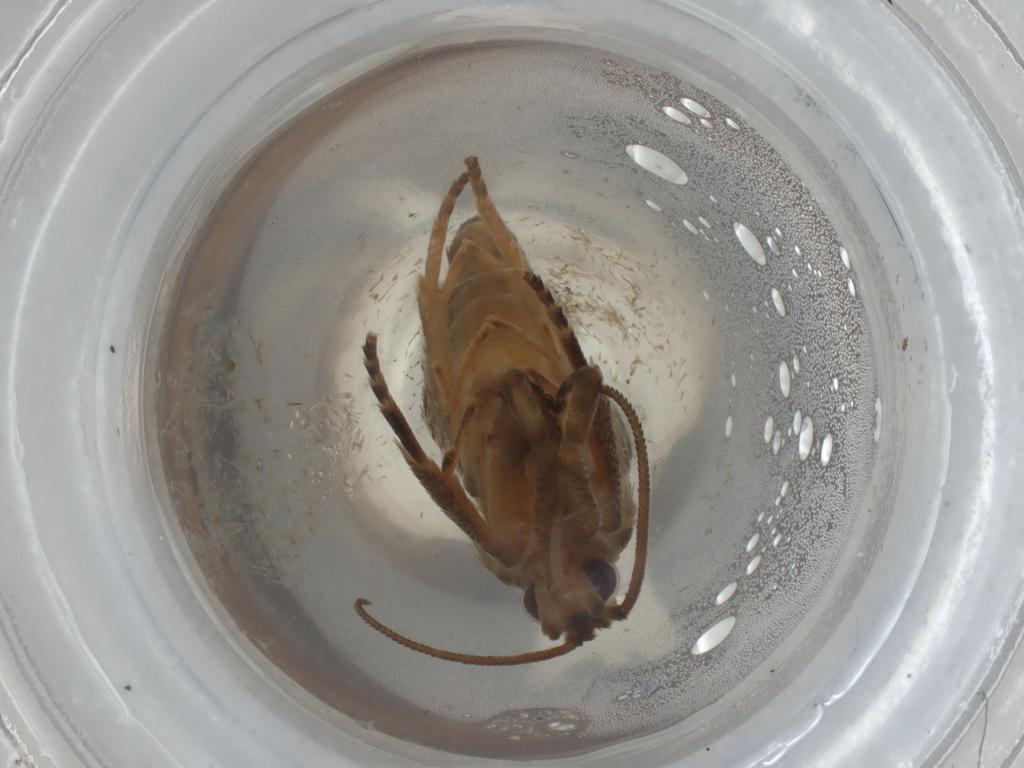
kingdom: Animalia
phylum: Arthropoda
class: Insecta
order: Lepidoptera
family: Tortricidae
